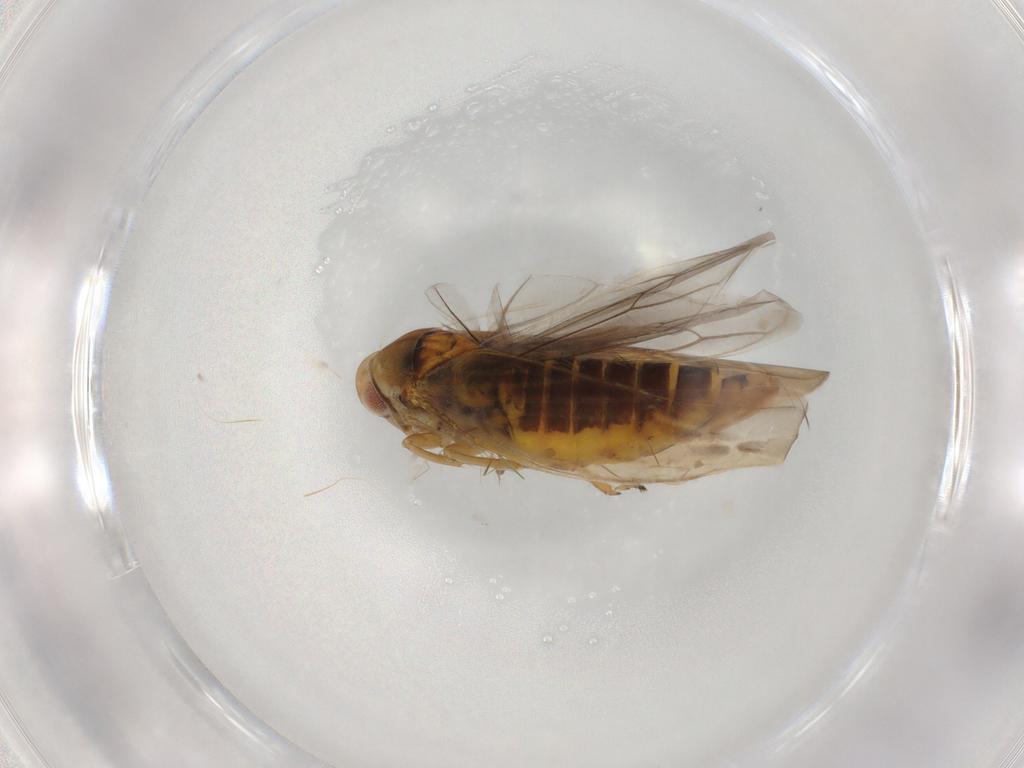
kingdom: Animalia
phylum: Arthropoda
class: Insecta
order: Hemiptera
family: Cicadellidae
